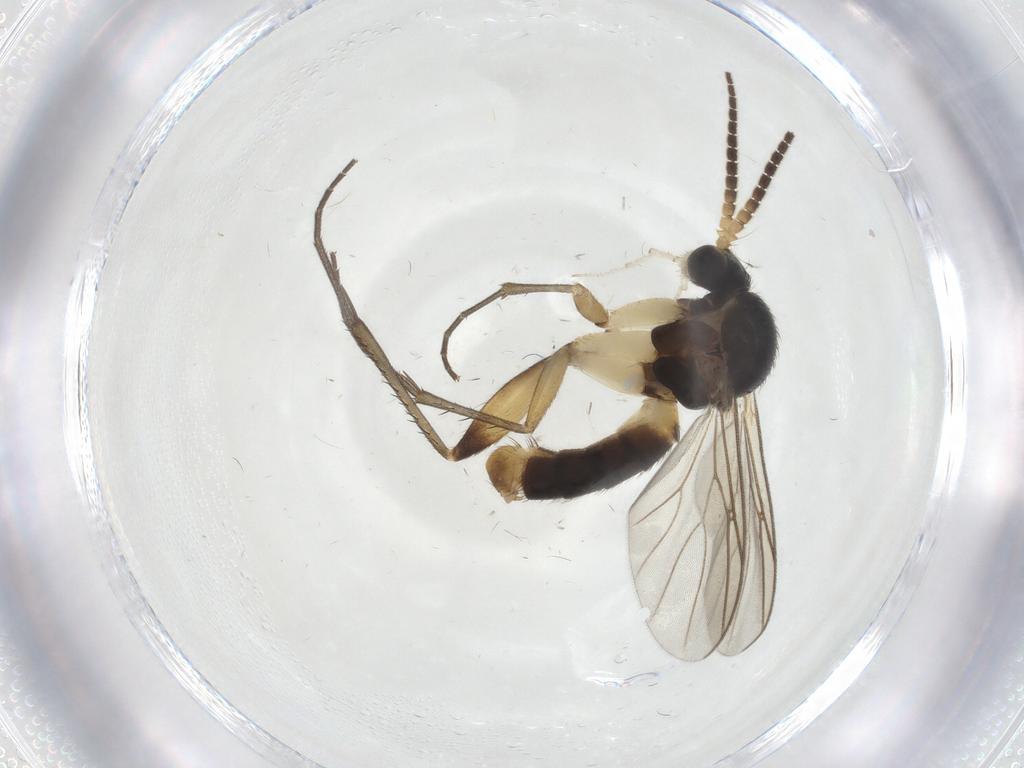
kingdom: Animalia
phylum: Arthropoda
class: Insecta
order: Diptera
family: Mycetophilidae
